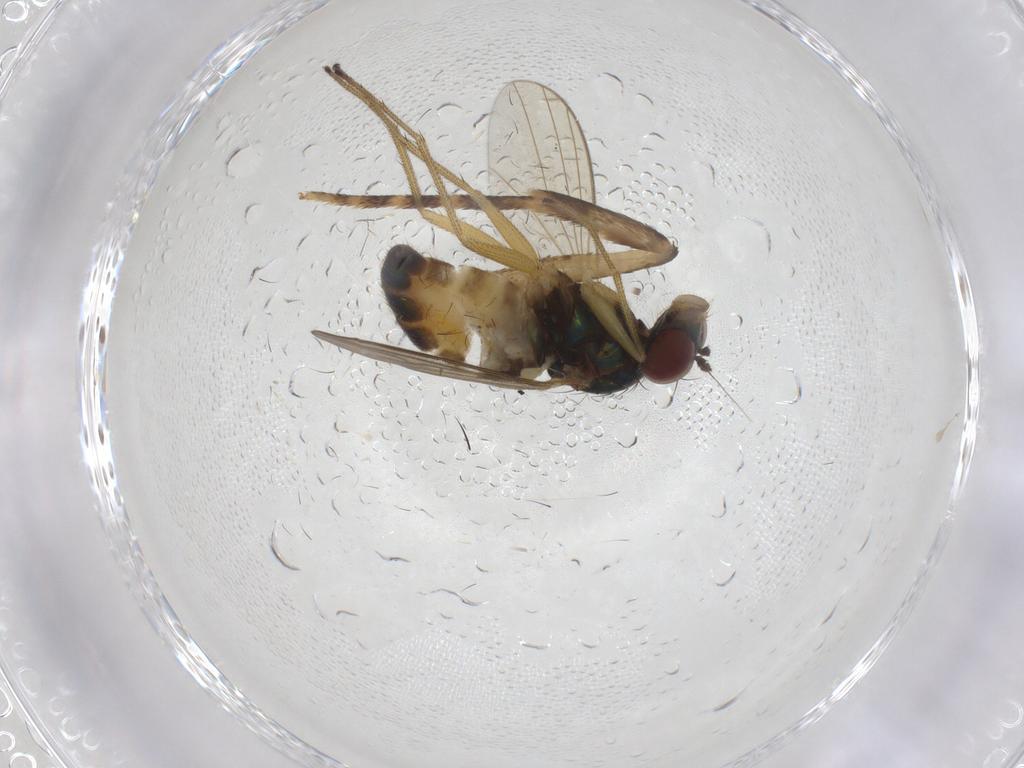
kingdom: Animalia
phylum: Arthropoda
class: Insecta
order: Diptera
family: Dolichopodidae
